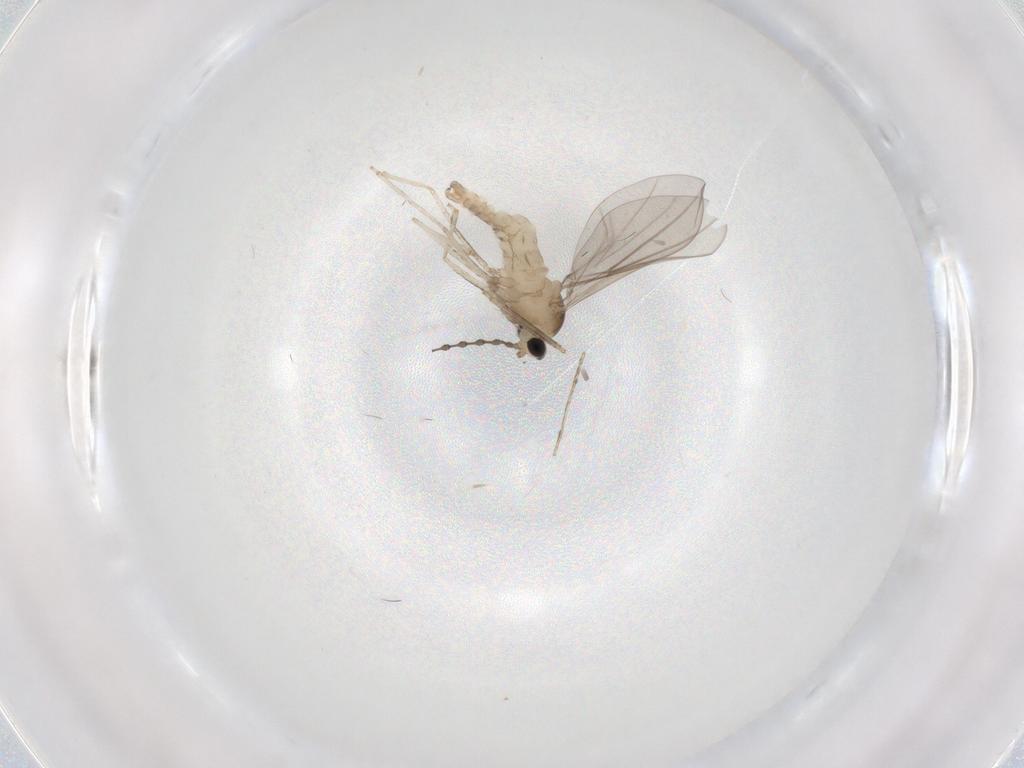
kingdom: Animalia
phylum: Arthropoda
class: Insecta
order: Diptera
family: Cecidomyiidae
